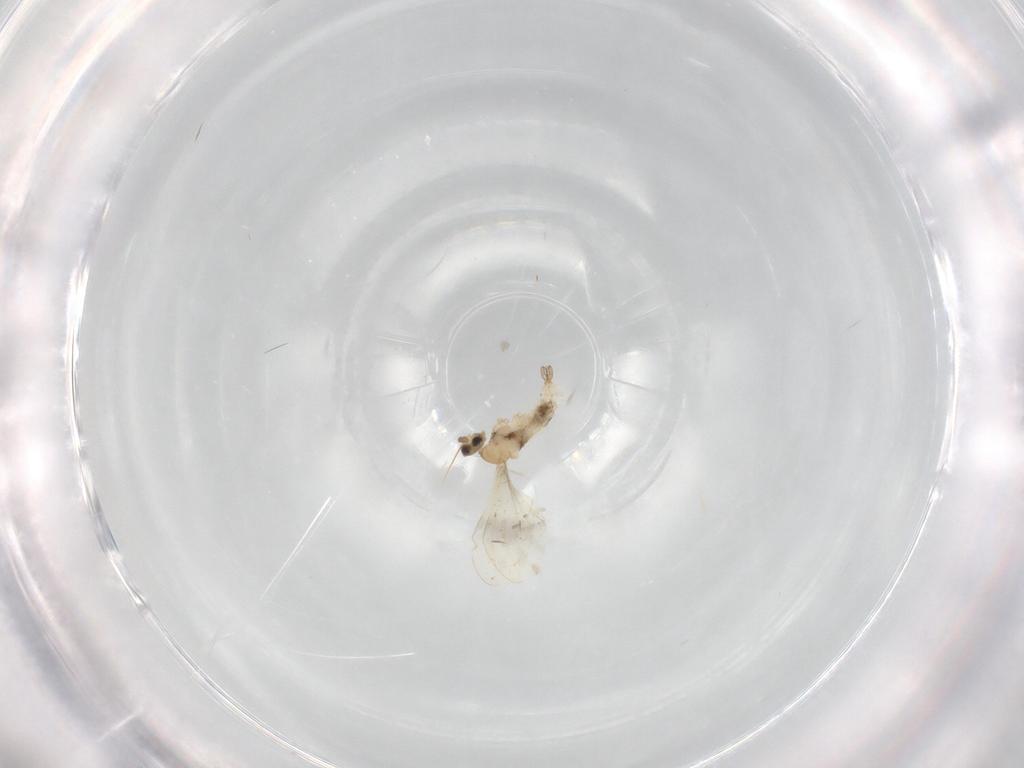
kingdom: Animalia
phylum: Arthropoda
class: Insecta
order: Diptera
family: Cecidomyiidae
